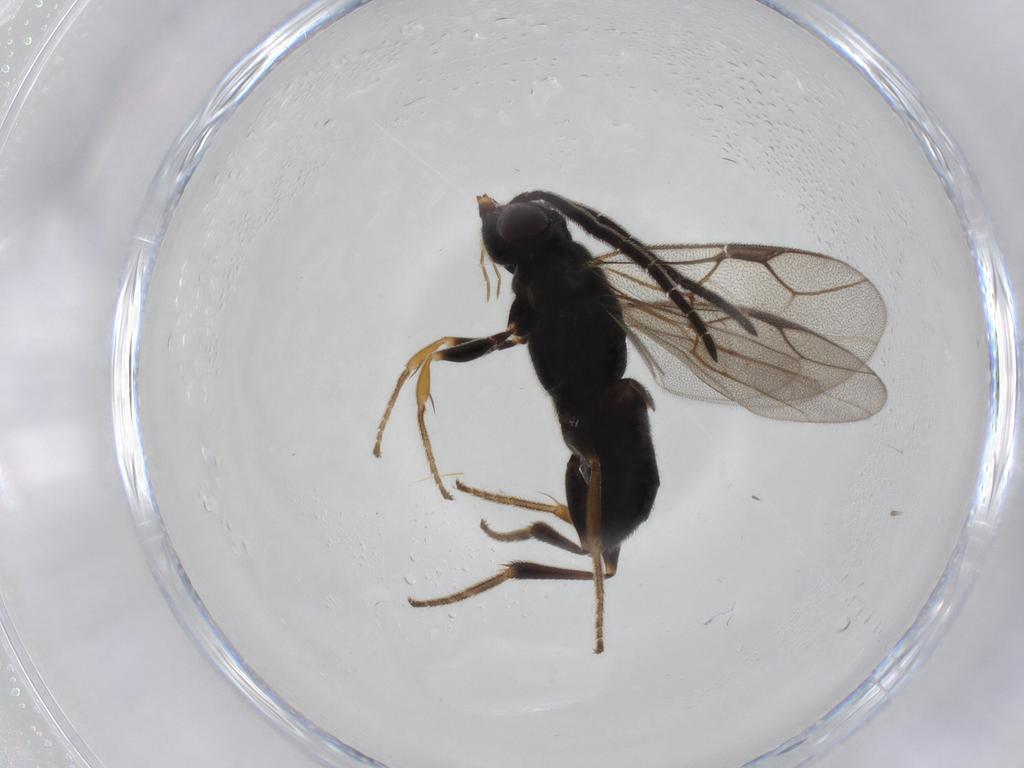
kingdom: Animalia
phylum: Arthropoda
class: Insecta
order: Hymenoptera
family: Dryinidae
